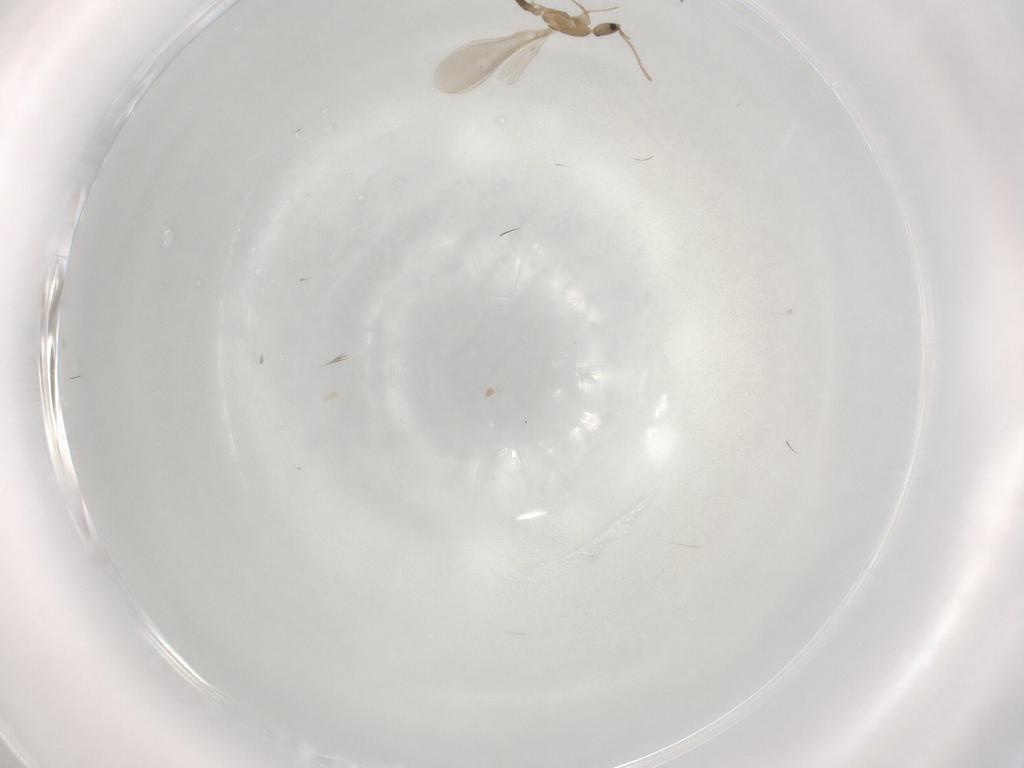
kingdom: Animalia
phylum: Arthropoda
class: Insecta
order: Hymenoptera
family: Formicidae
